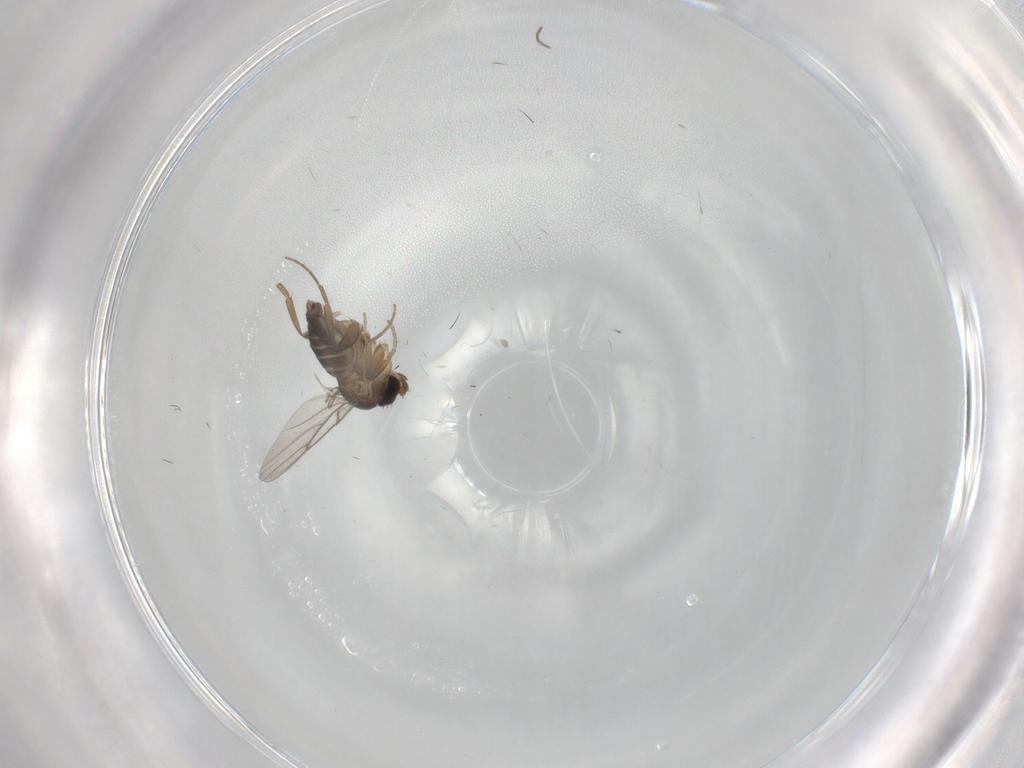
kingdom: Animalia
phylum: Arthropoda
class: Insecta
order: Diptera
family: Phoridae
